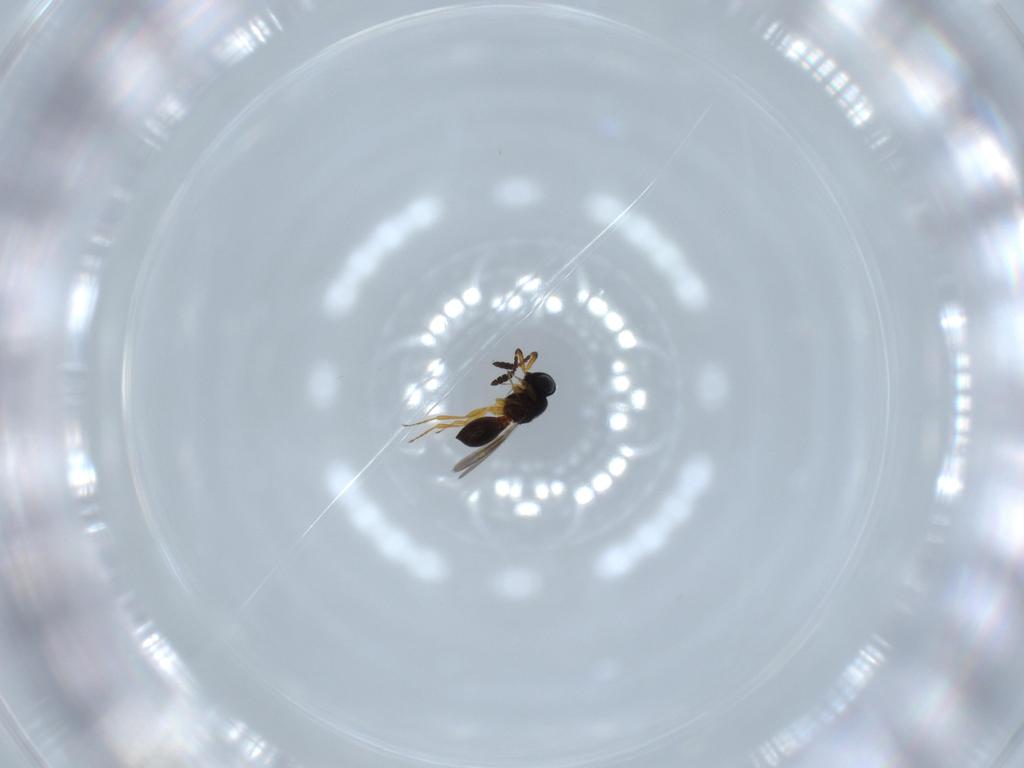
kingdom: Animalia
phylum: Arthropoda
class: Insecta
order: Hymenoptera
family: Scelionidae
